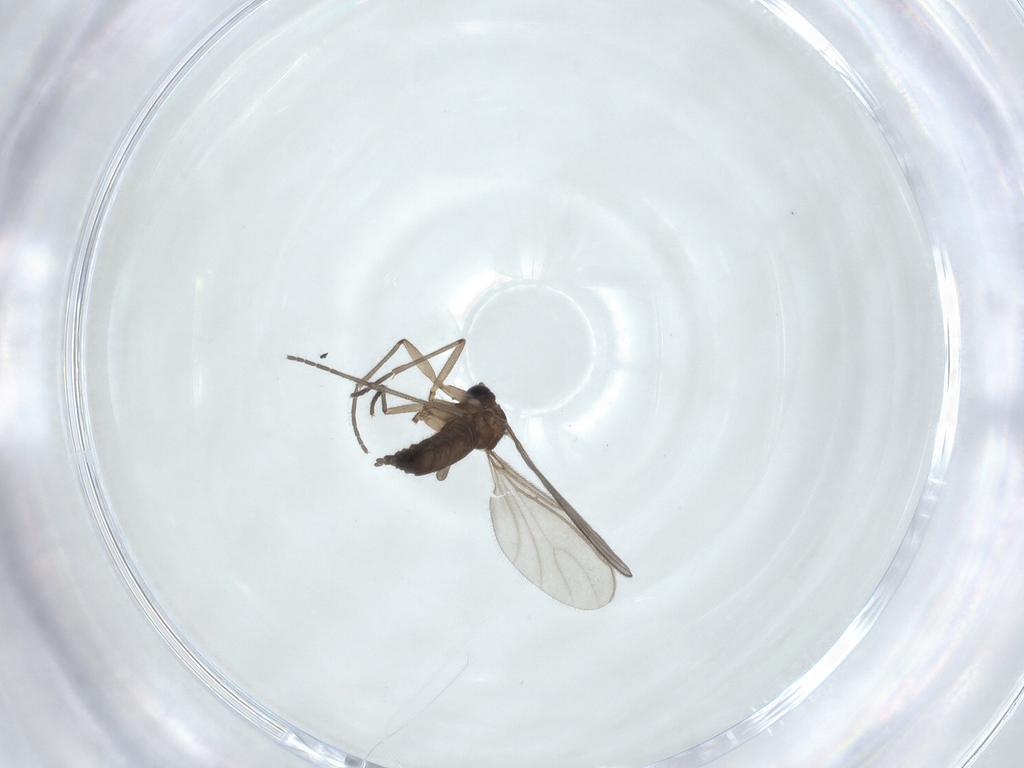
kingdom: Animalia
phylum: Arthropoda
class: Insecta
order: Diptera
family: Sciaridae
